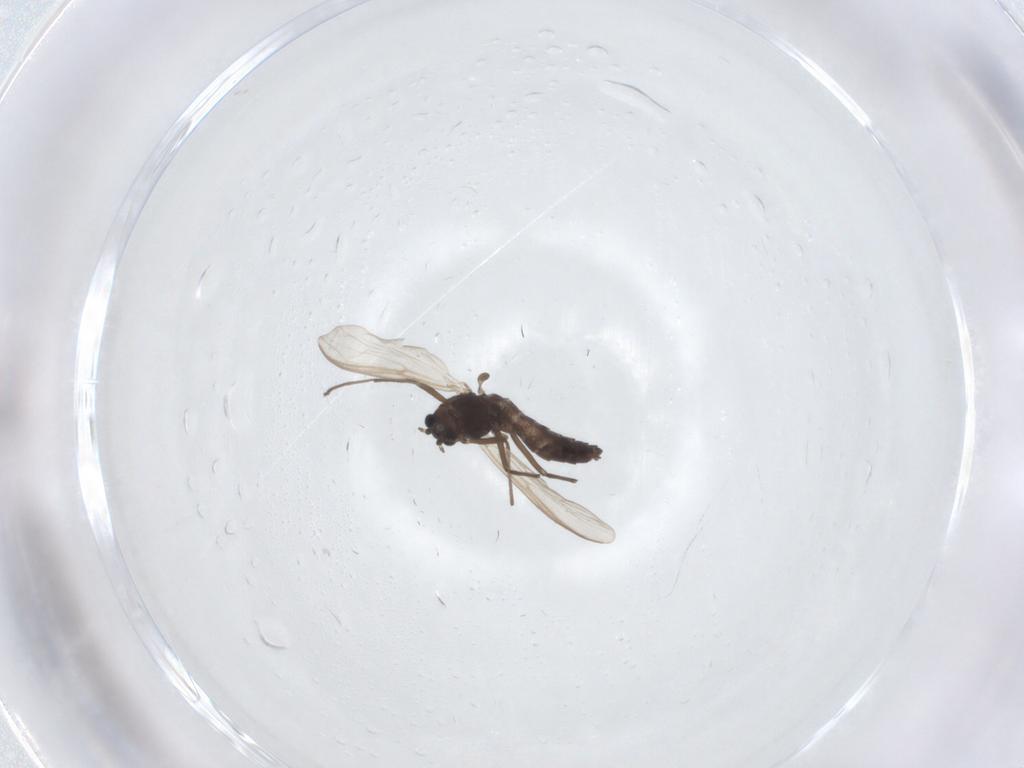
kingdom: Animalia
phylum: Arthropoda
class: Insecta
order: Diptera
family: Chironomidae
